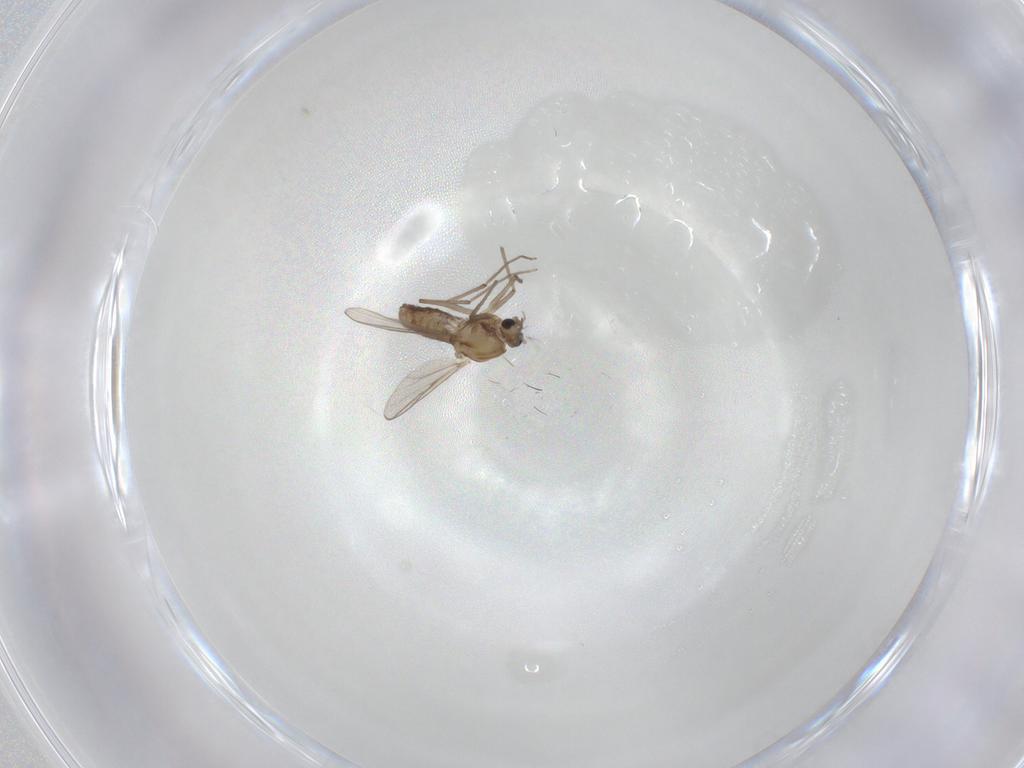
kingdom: Animalia
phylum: Arthropoda
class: Insecta
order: Diptera
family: Chironomidae
